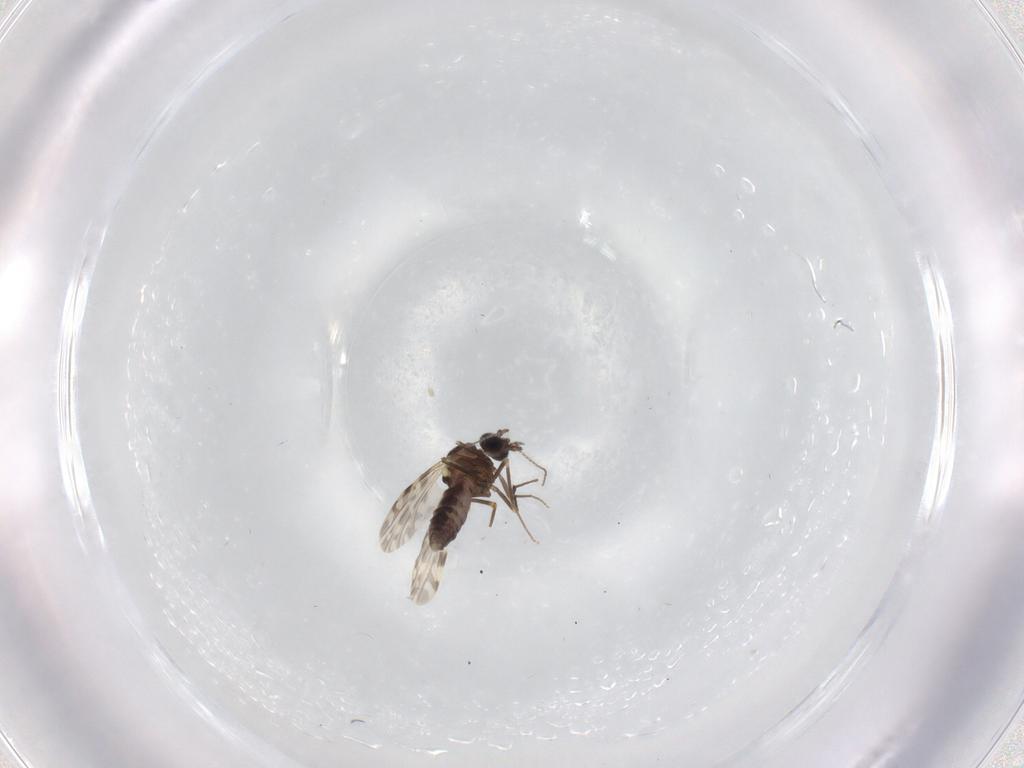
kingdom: Animalia
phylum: Arthropoda
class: Insecta
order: Diptera
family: Ceratopogonidae
